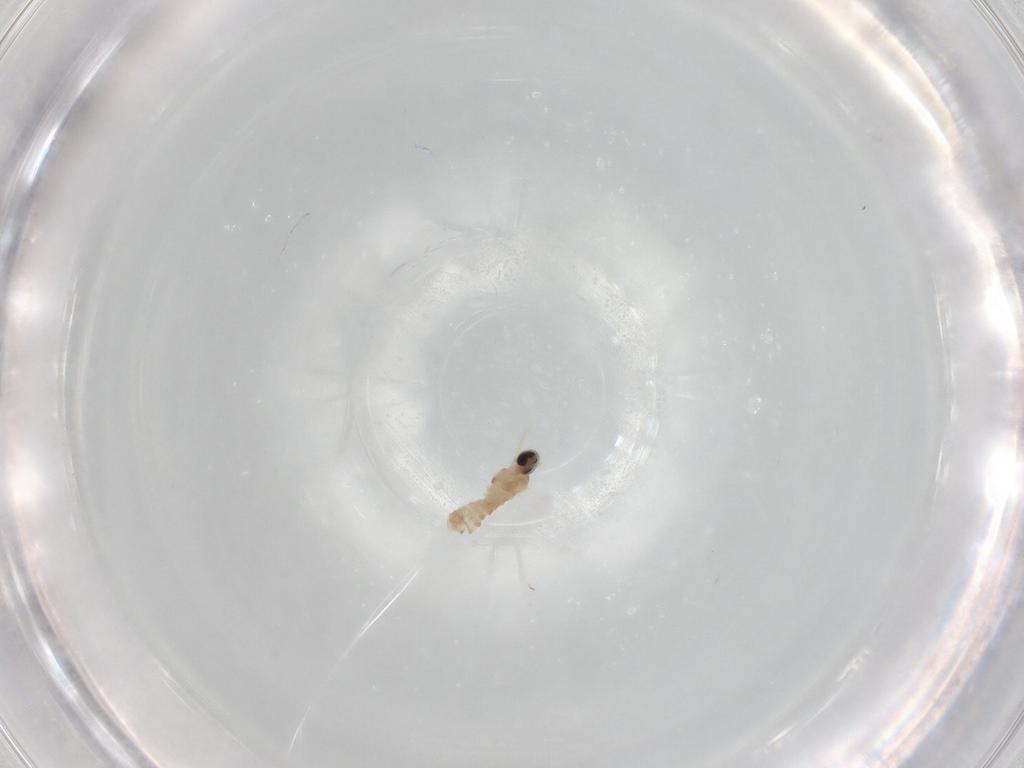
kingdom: Animalia
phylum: Arthropoda
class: Insecta
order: Diptera
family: Cecidomyiidae
